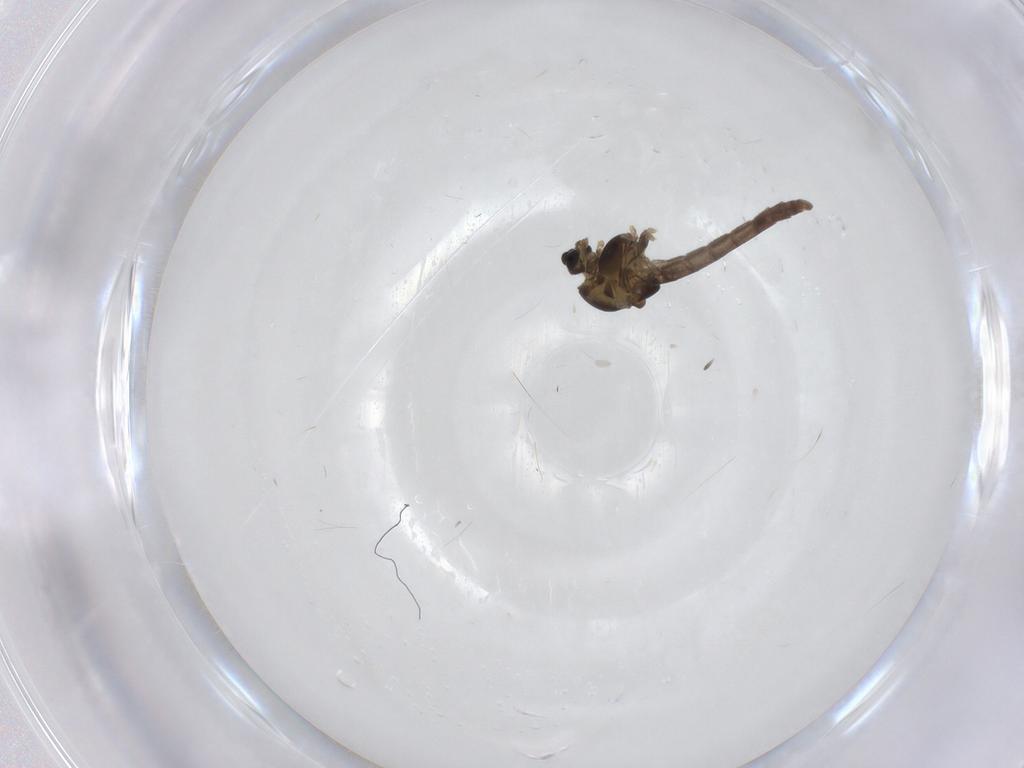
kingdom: Animalia
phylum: Arthropoda
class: Insecta
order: Diptera
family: Chironomidae
